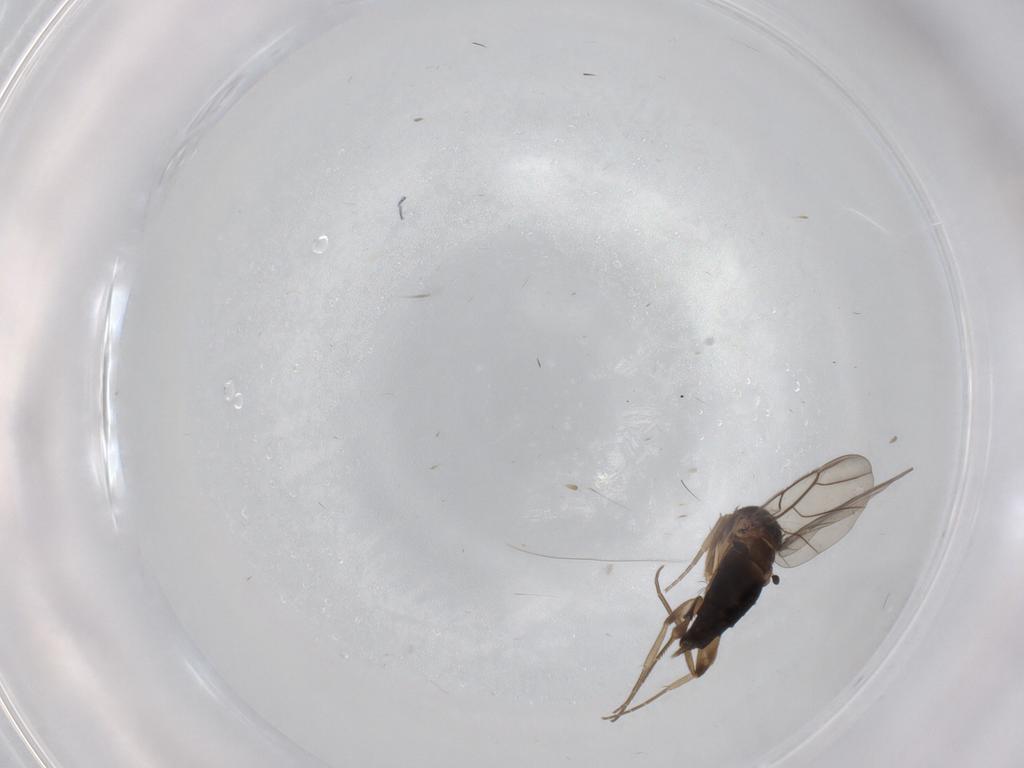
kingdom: Animalia
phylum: Arthropoda
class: Insecta
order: Diptera
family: Phoridae
